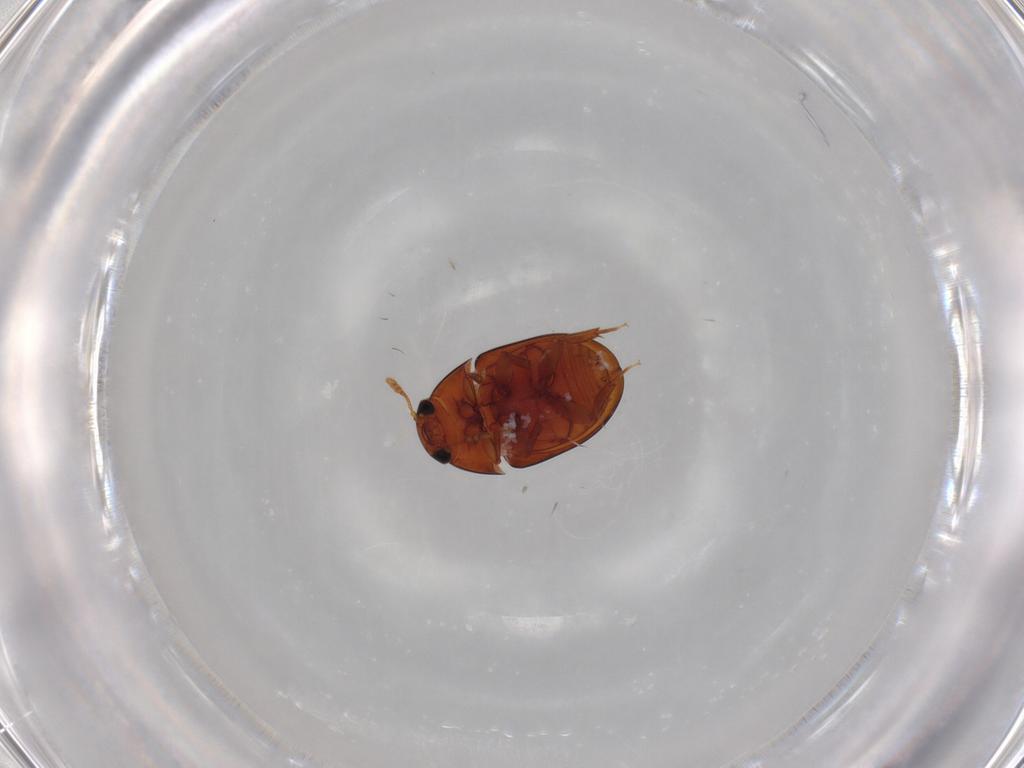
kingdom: Animalia
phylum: Arthropoda
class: Insecta
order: Coleoptera
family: Phalacridae
